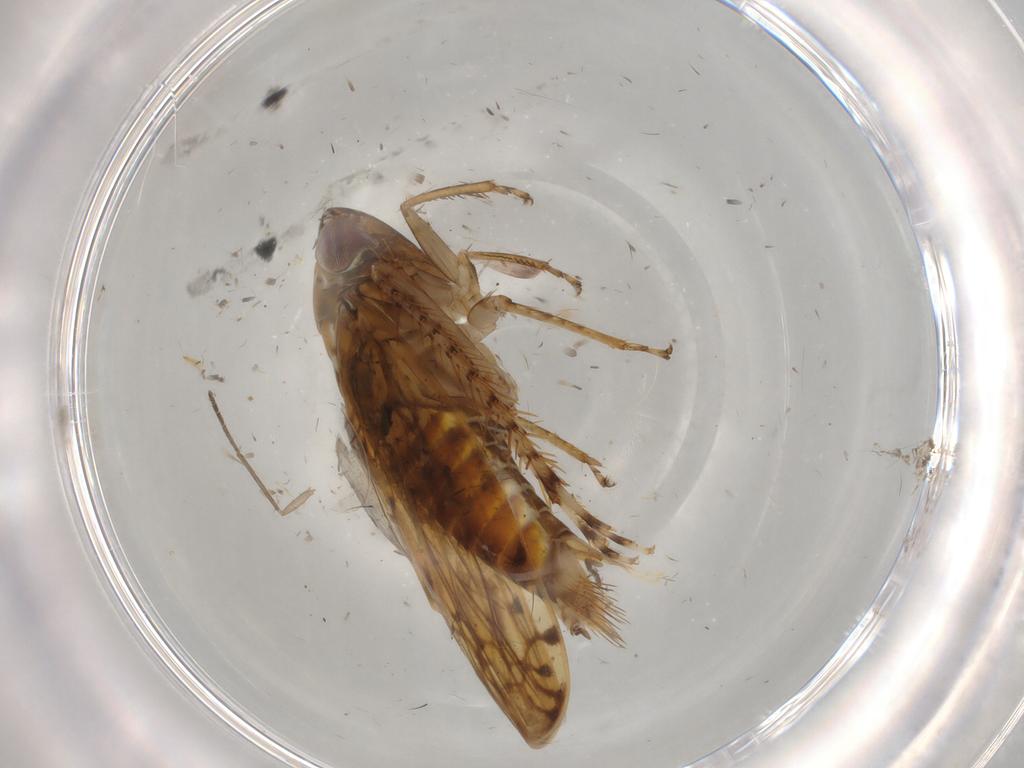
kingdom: Animalia
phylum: Arthropoda
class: Insecta
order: Hemiptera
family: Cicadellidae
